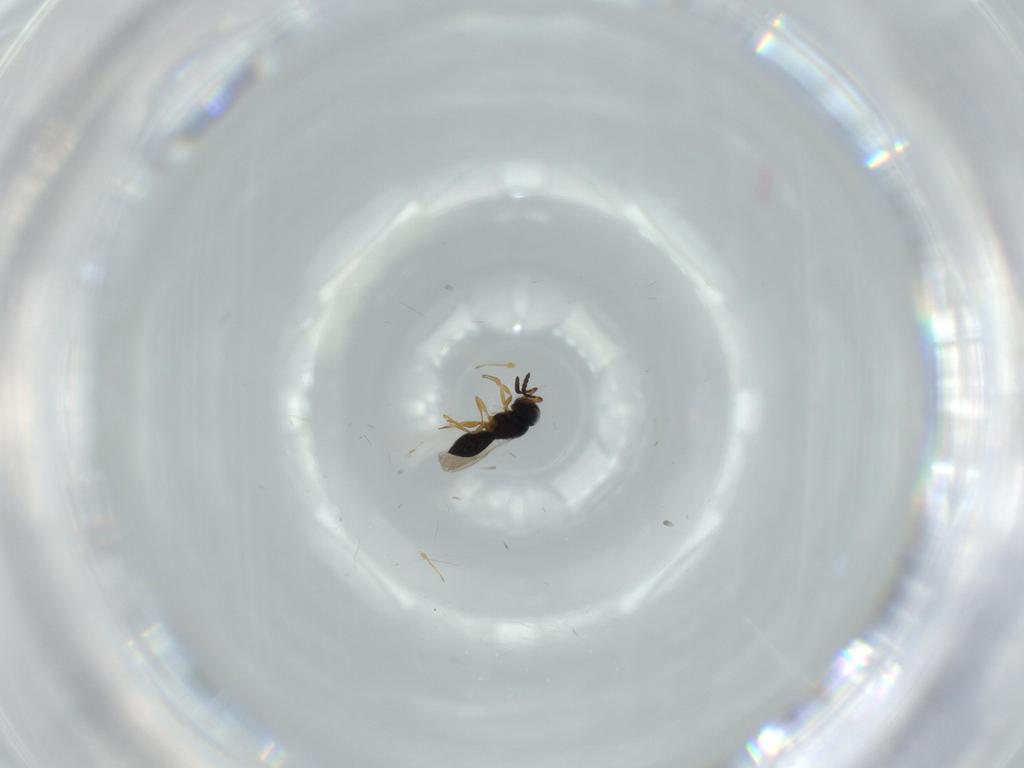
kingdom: Animalia
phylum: Arthropoda
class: Insecta
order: Hymenoptera
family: Scelionidae
